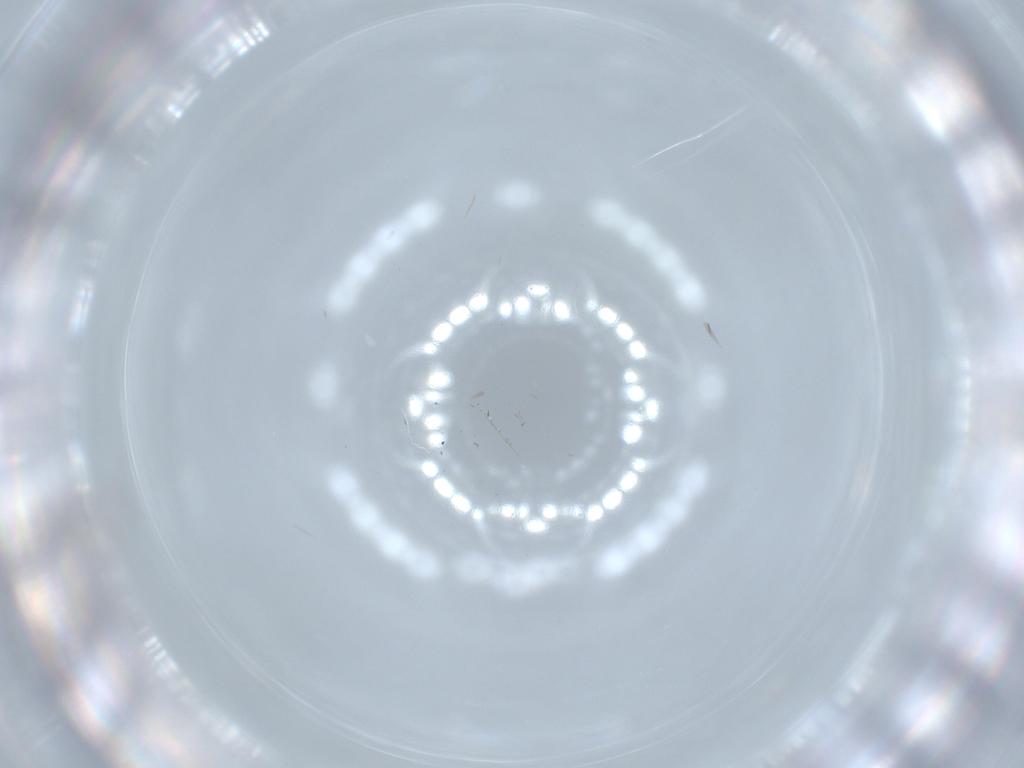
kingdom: Animalia
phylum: Arthropoda
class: Insecta
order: Diptera
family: Cecidomyiidae
